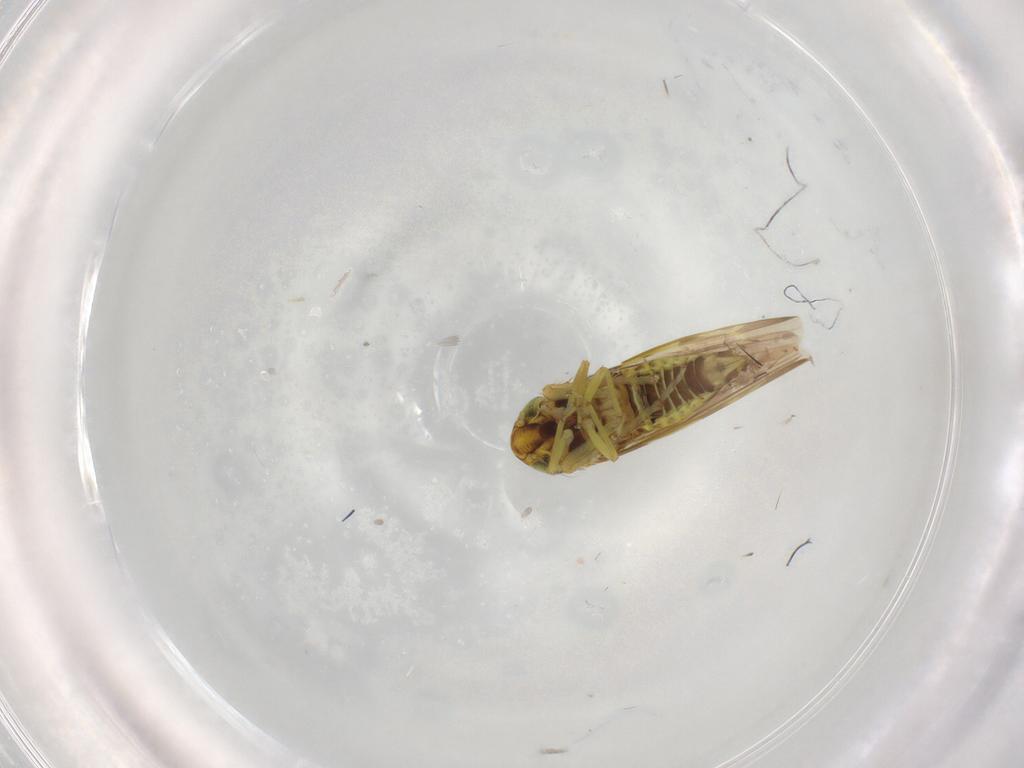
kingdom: Animalia
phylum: Arthropoda
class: Insecta
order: Hemiptera
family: Cicadellidae
